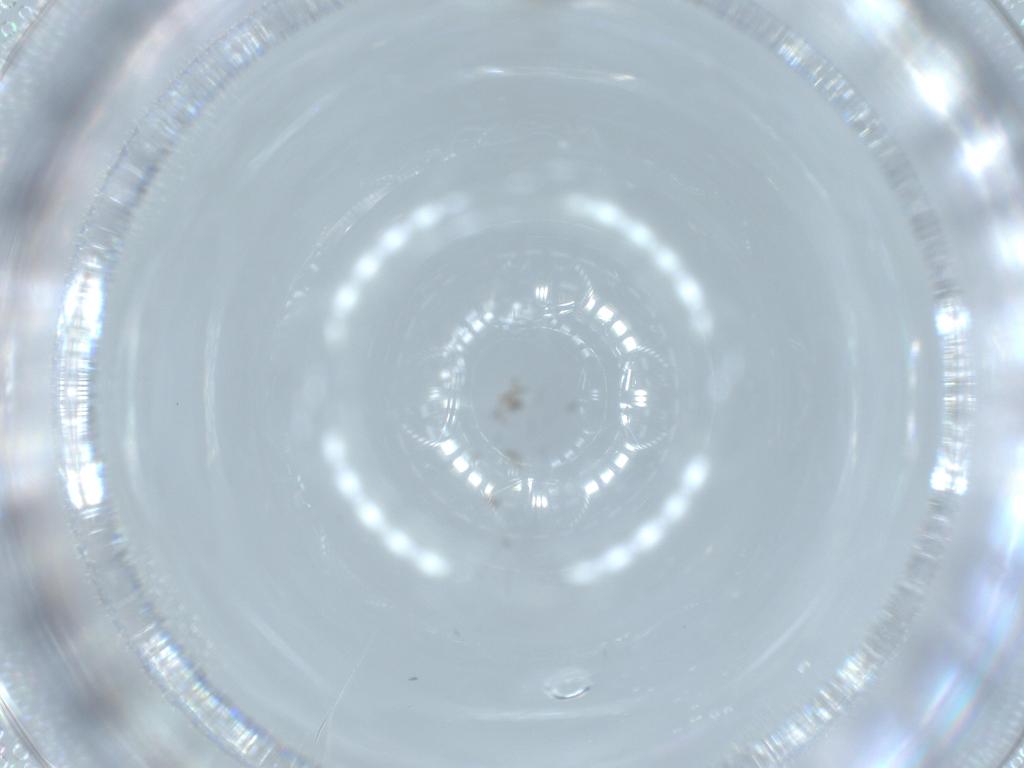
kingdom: Animalia
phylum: Arthropoda
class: Insecta
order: Diptera
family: Cecidomyiidae
